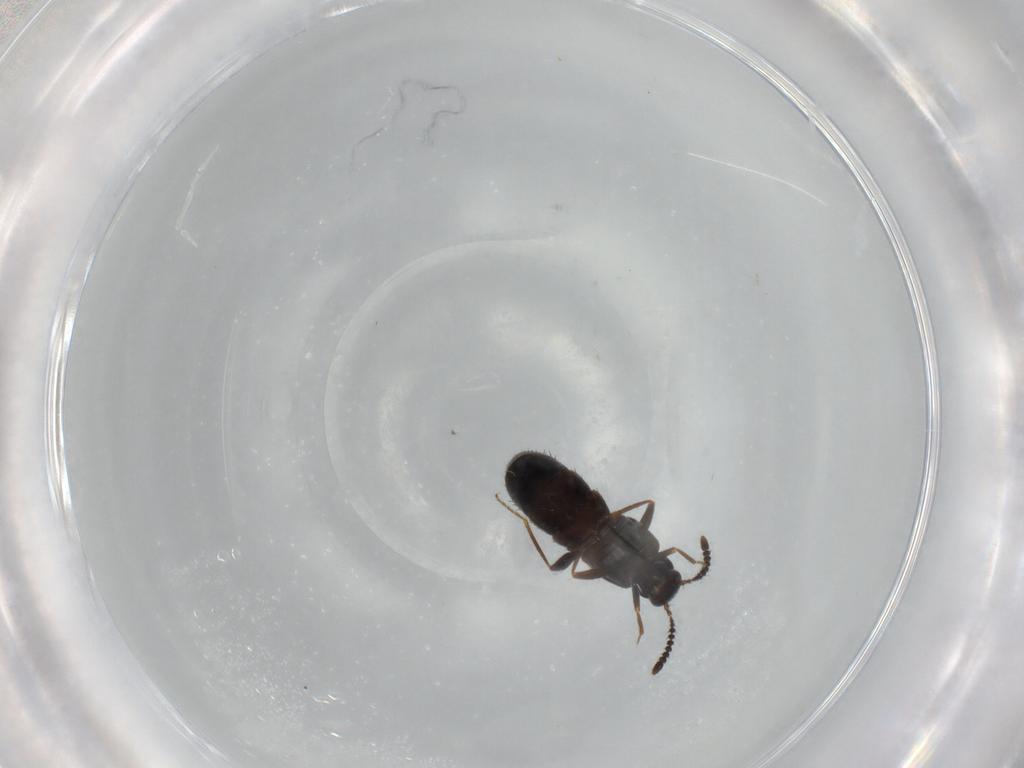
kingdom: Animalia
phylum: Arthropoda
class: Insecta
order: Coleoptera
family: Staphylinidae
